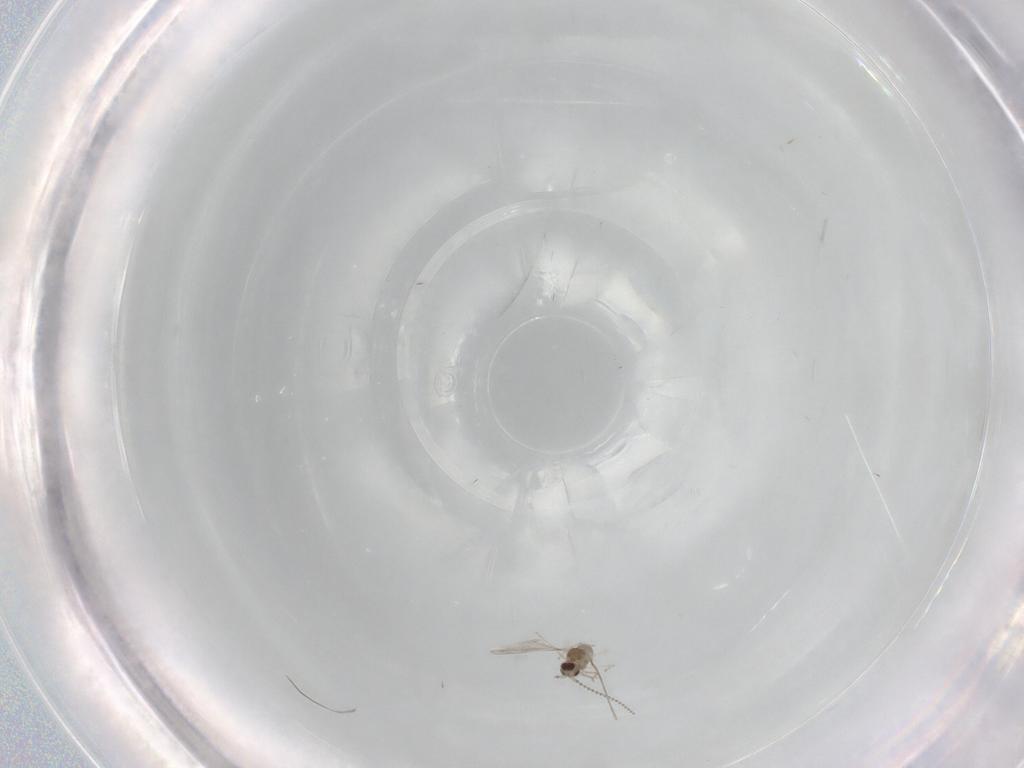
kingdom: Animalia
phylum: Arthropoda
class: Insecta
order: Diptera
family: Cecidomyiidae
